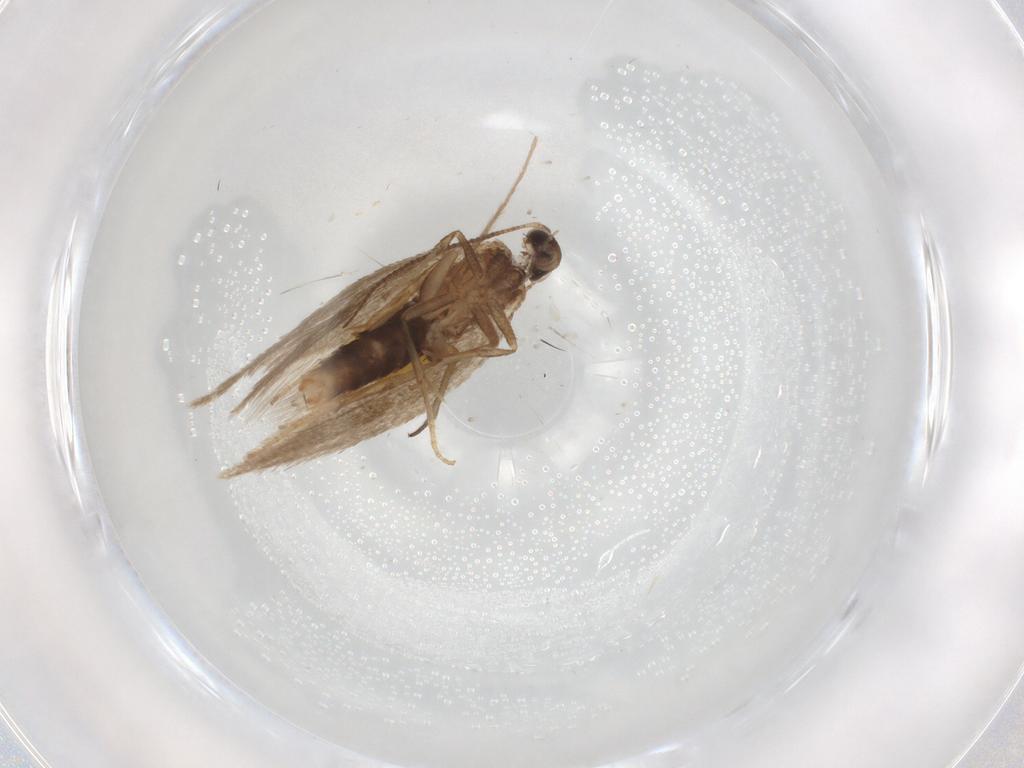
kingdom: Animalia
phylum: Arthropoda
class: Insecta
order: Lepidoptera
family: Nepticulidae
